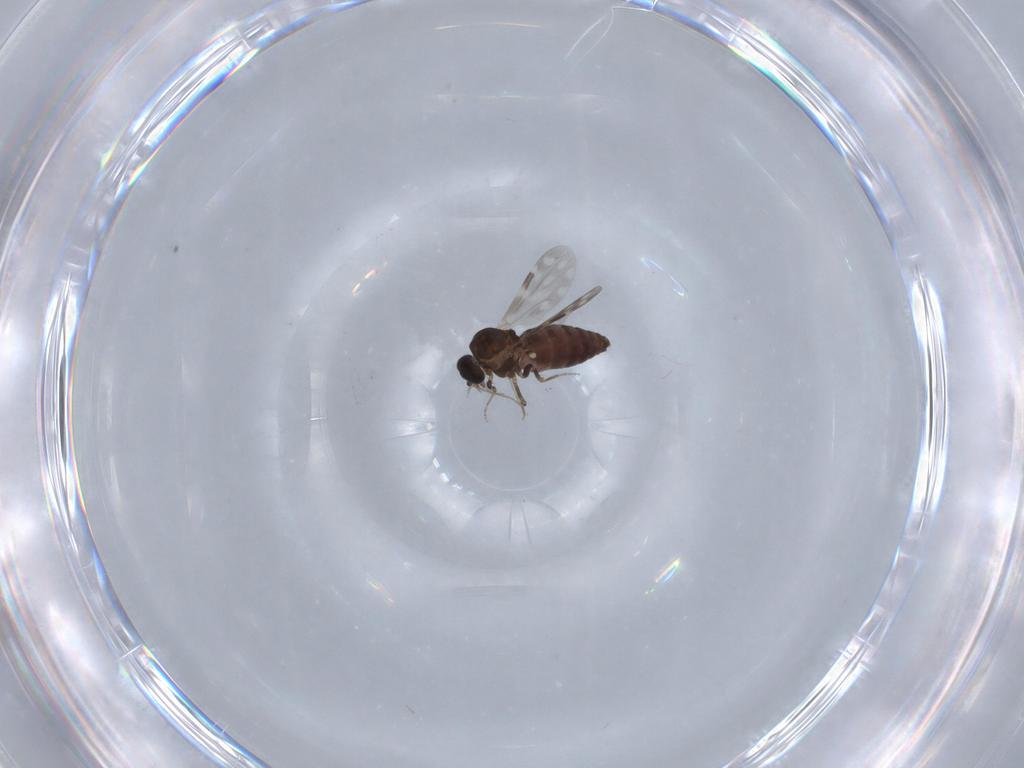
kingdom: Animalia
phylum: Arthropoda
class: Insecta
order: Diptera
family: Ceratopogonidae
